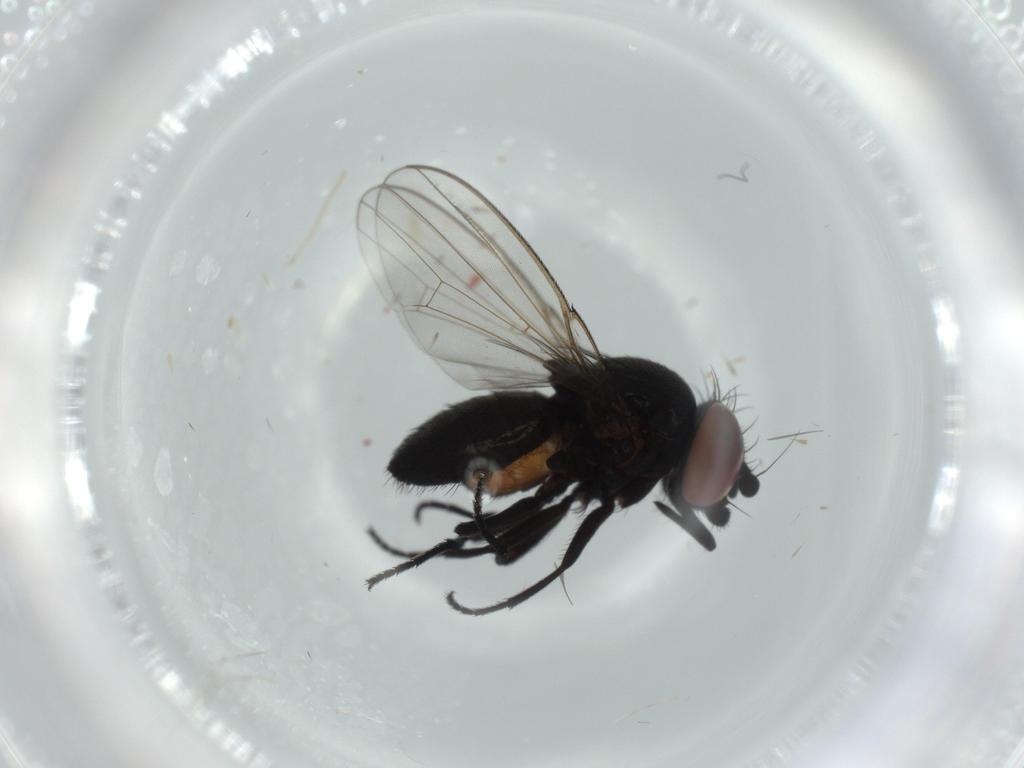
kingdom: Animalia
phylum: Arthropoda
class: Insecta
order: Diptera
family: Milichiidae
